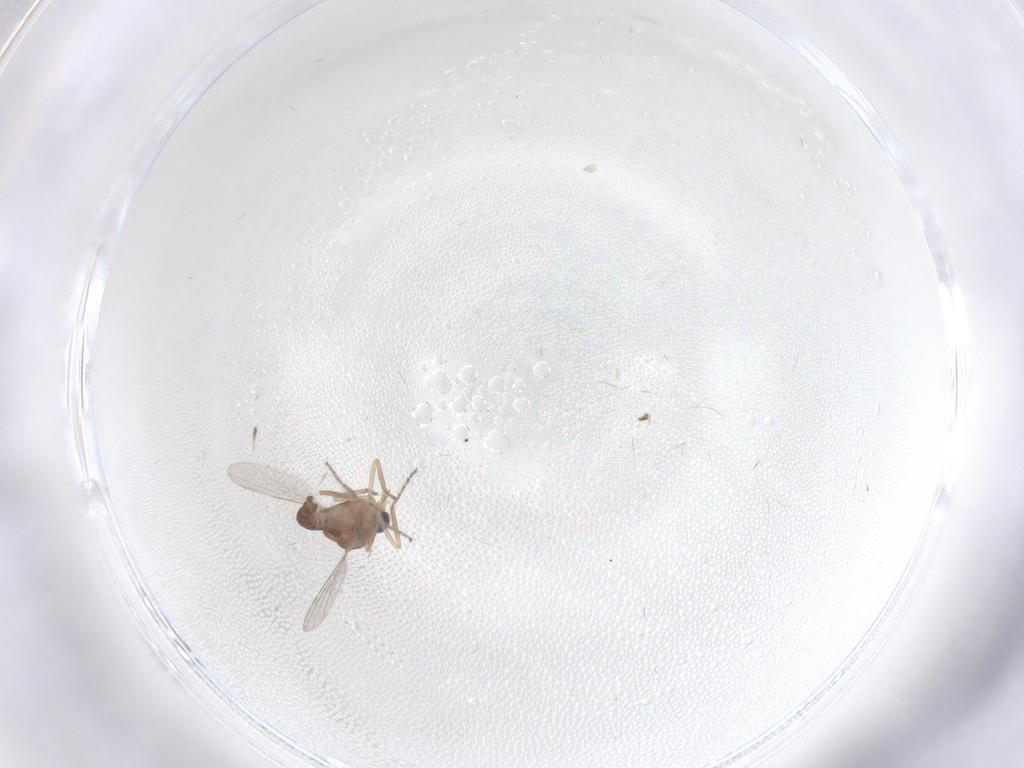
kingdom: Animalia
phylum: Arthropoda
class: Insecta
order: Diptera
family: Ceratopogonidae
